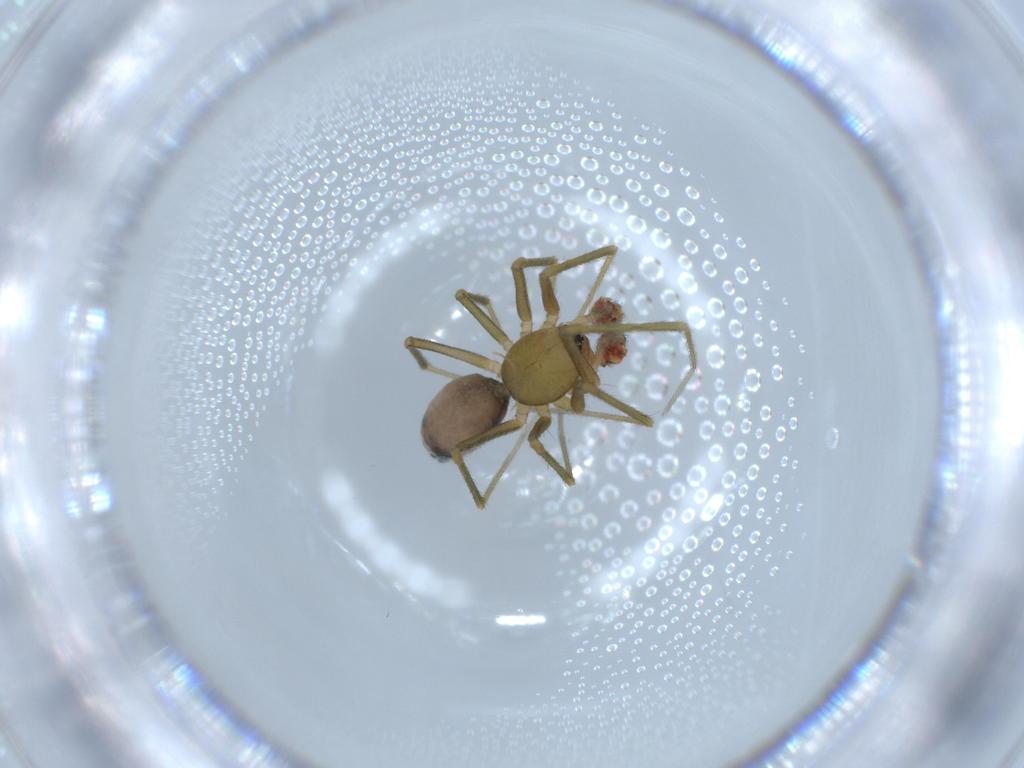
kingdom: Animalia
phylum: Arthropoda
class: Arachnida
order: Araneae
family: Linyphiidae
